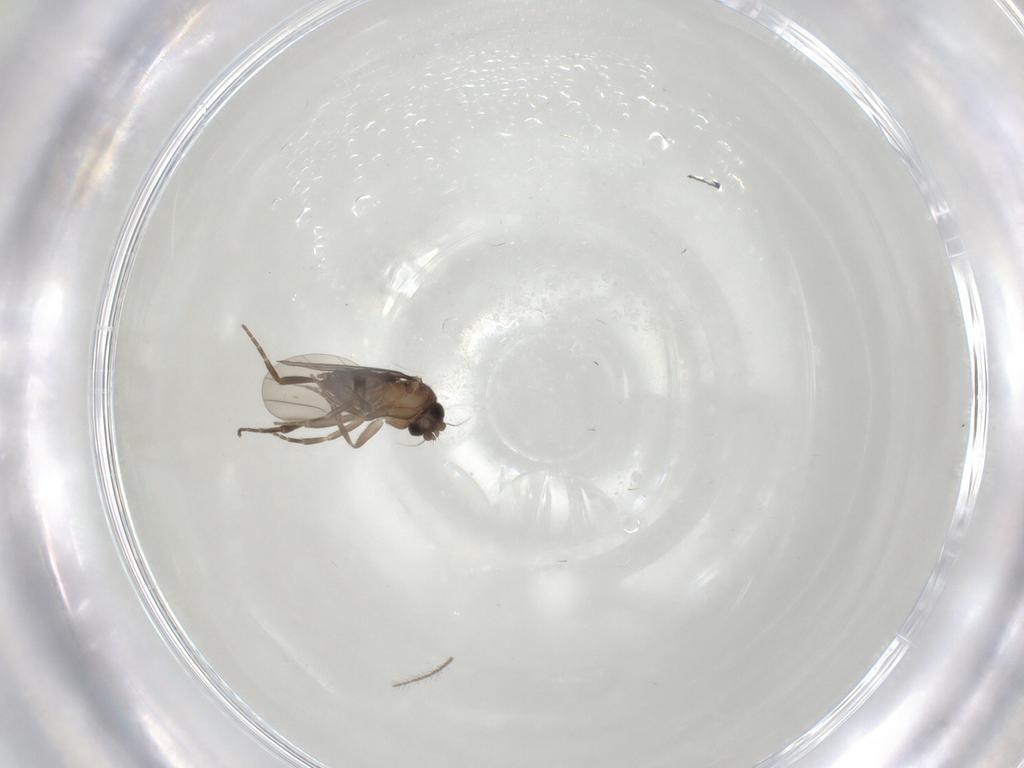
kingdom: Animalia
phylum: Arthropoda
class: Insecta
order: Diptera
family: Phoridae
